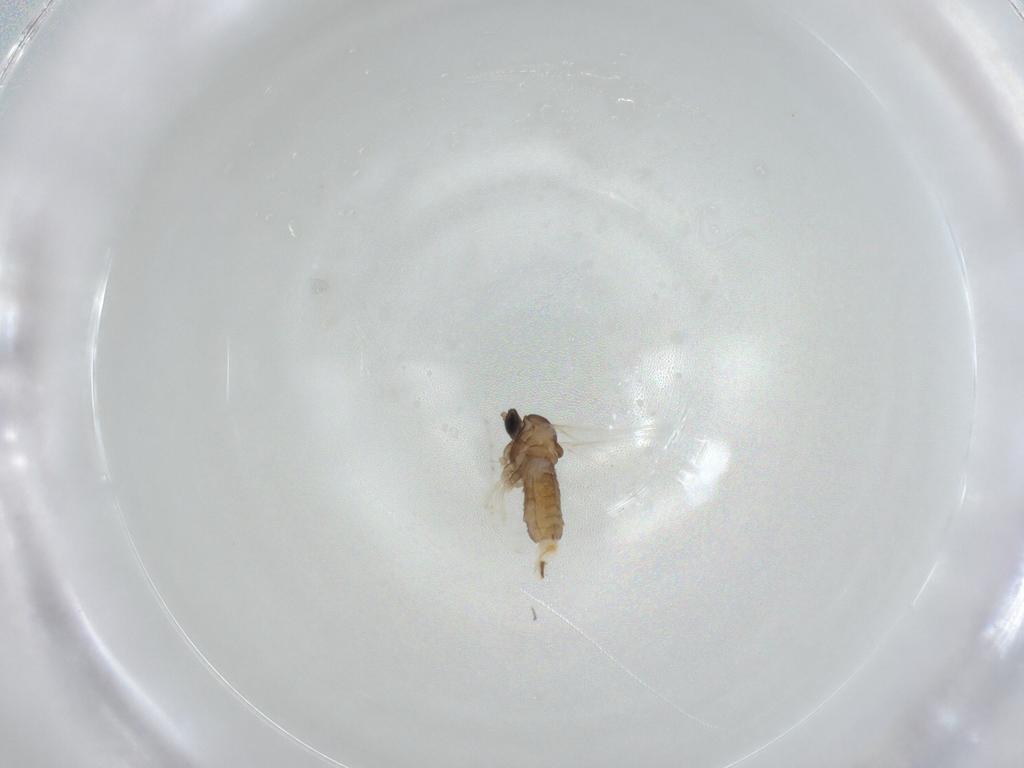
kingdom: Animalia
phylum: Arthropoda
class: Insecta
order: Diptera
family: Cecidomyiidae
